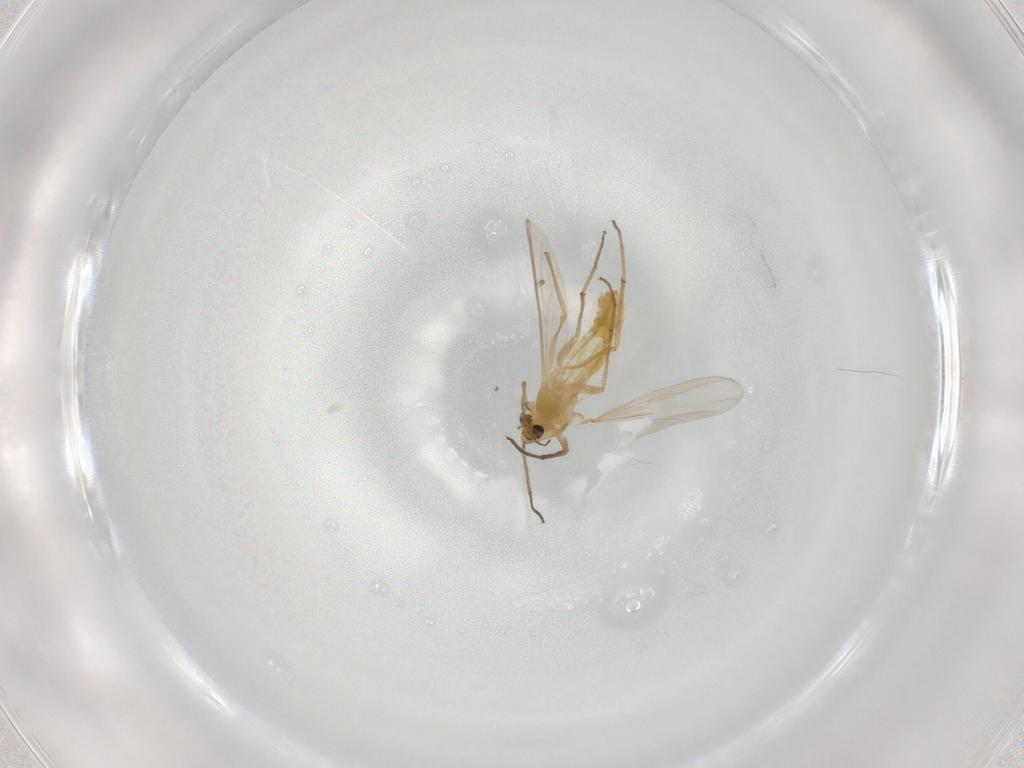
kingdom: Animalia
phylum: Arthropoda
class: Insecta
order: Diptera
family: Chironomidae
